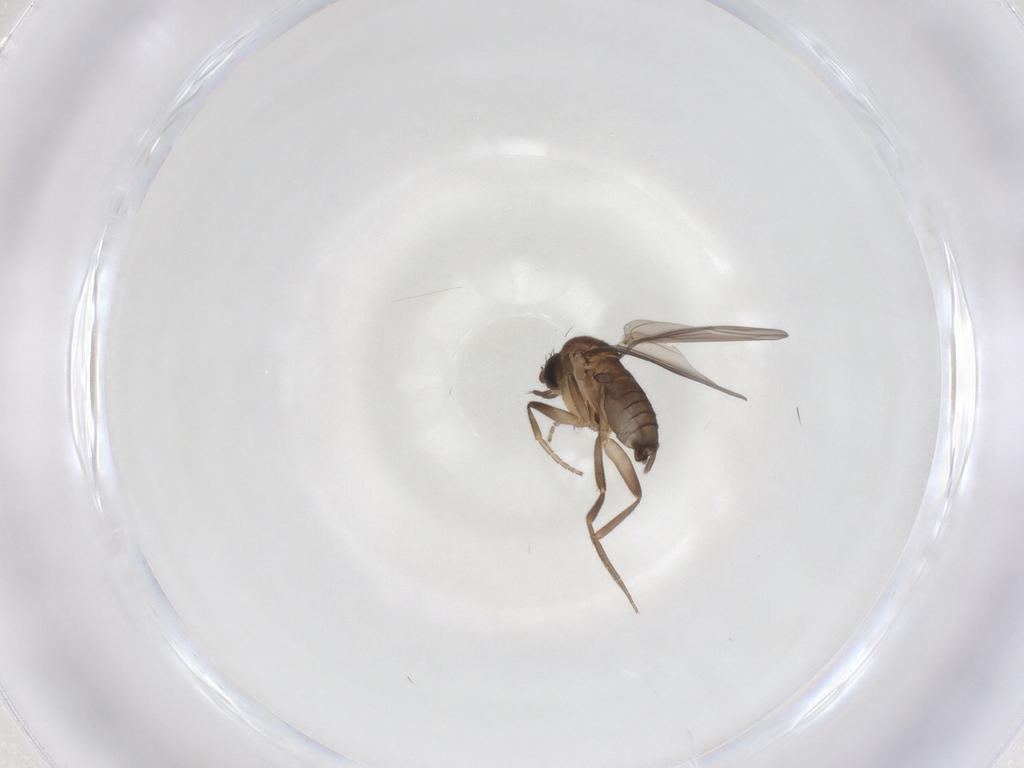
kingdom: Animalia
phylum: Arthropoda
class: Insecta
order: Diptera
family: Phoridae
